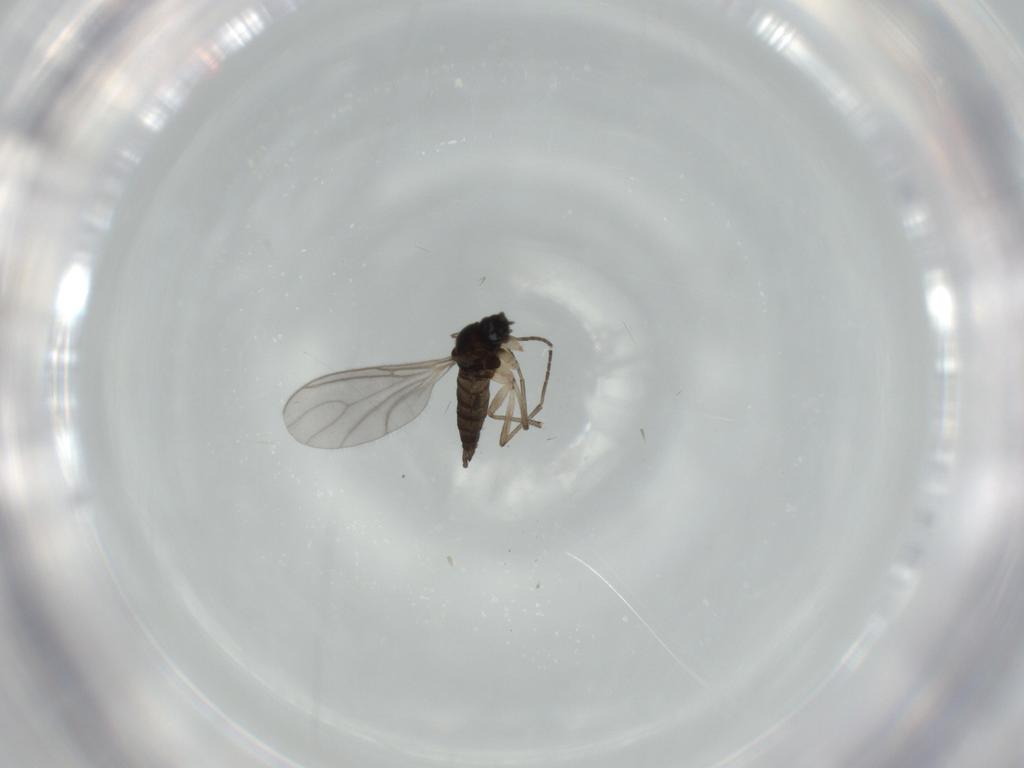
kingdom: Animalia
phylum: Arthropoda
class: Insecta
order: Diptera
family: Sciaridae
